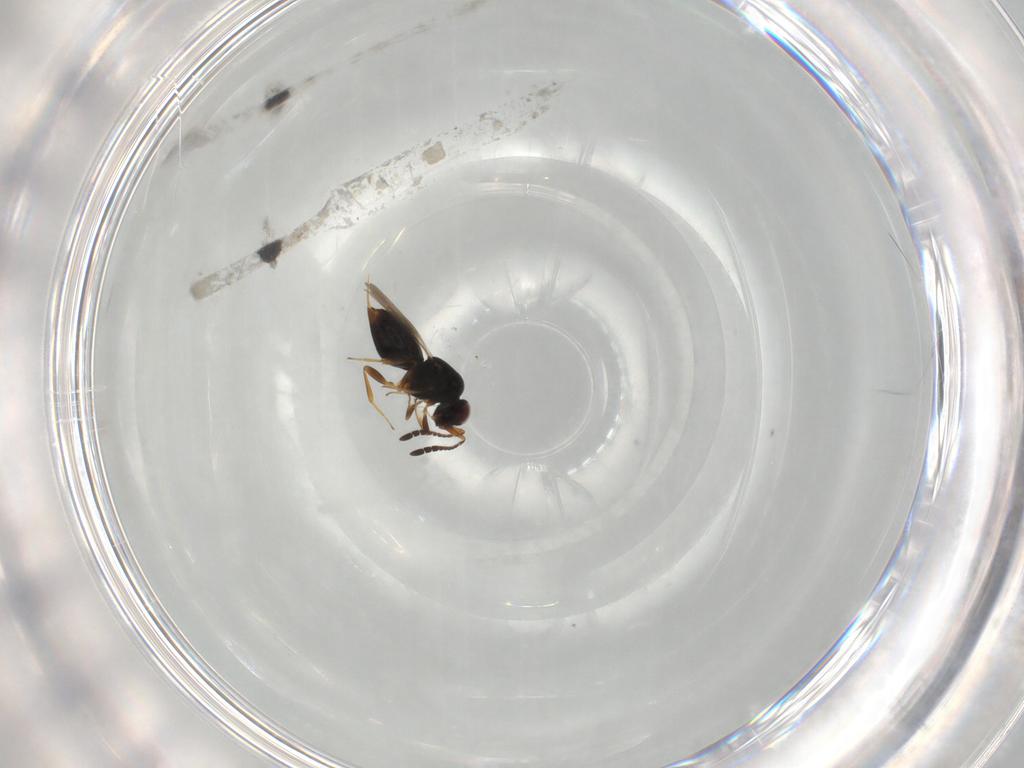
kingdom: Animalia
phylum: Arthropoda
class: Insecta
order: Hymenoptera
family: Ceraphronidae
